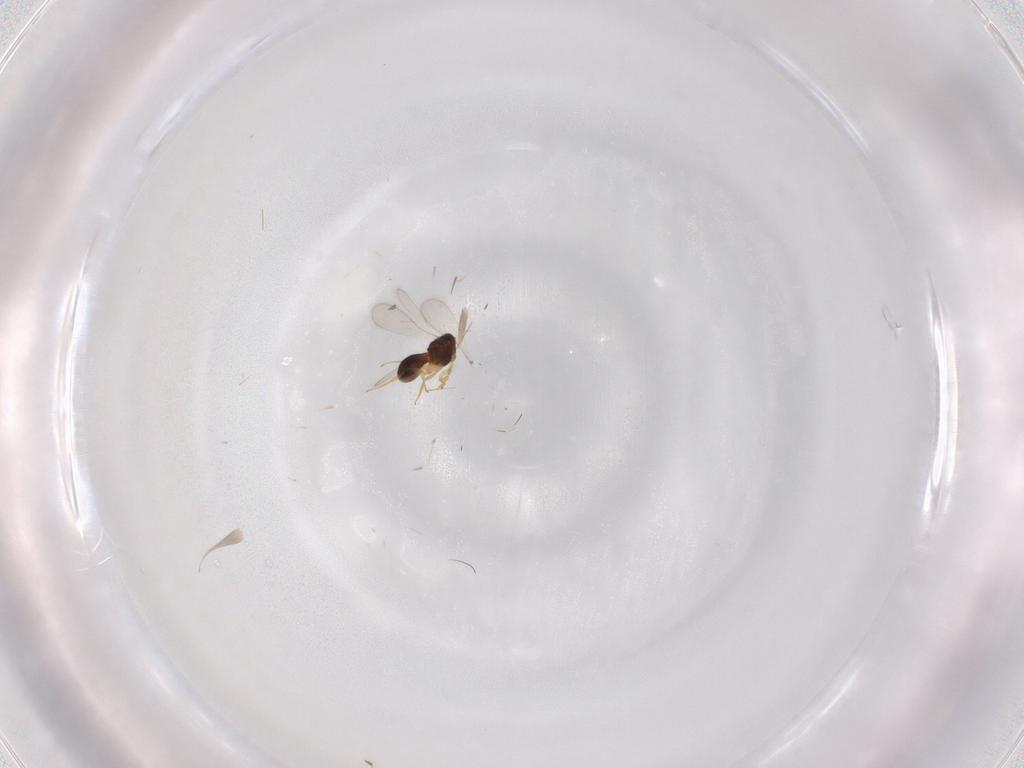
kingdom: Animalia
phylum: Arthropoda
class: Insecta
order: Hymenoptera
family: Scelionidae
